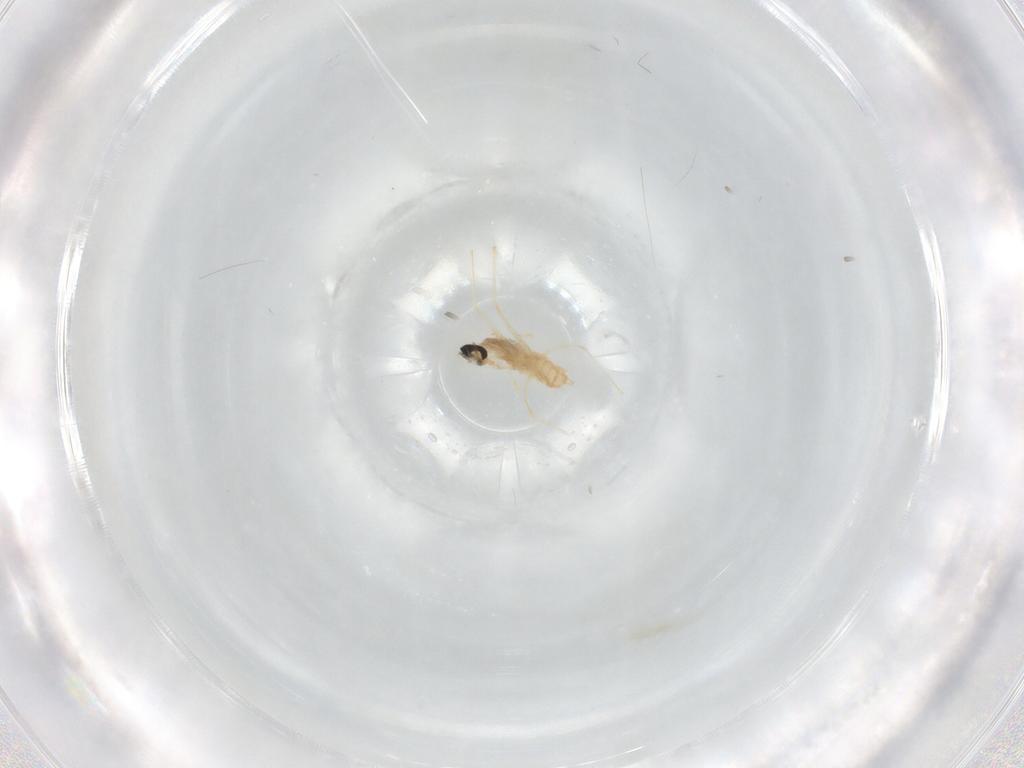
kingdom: Animalia
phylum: Arthropoda
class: Insecta
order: Diptera
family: Cecidomyiidae
